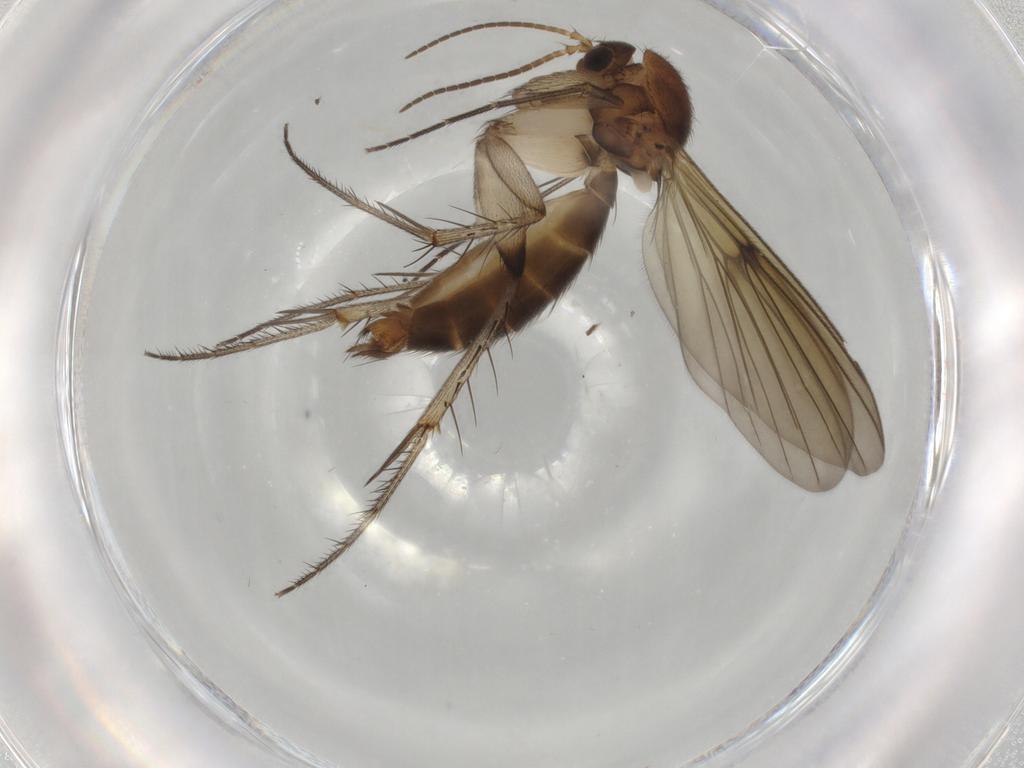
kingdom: Animalia
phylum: Arthropoda
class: Insecta
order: Diptera
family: Mycetophilidae
